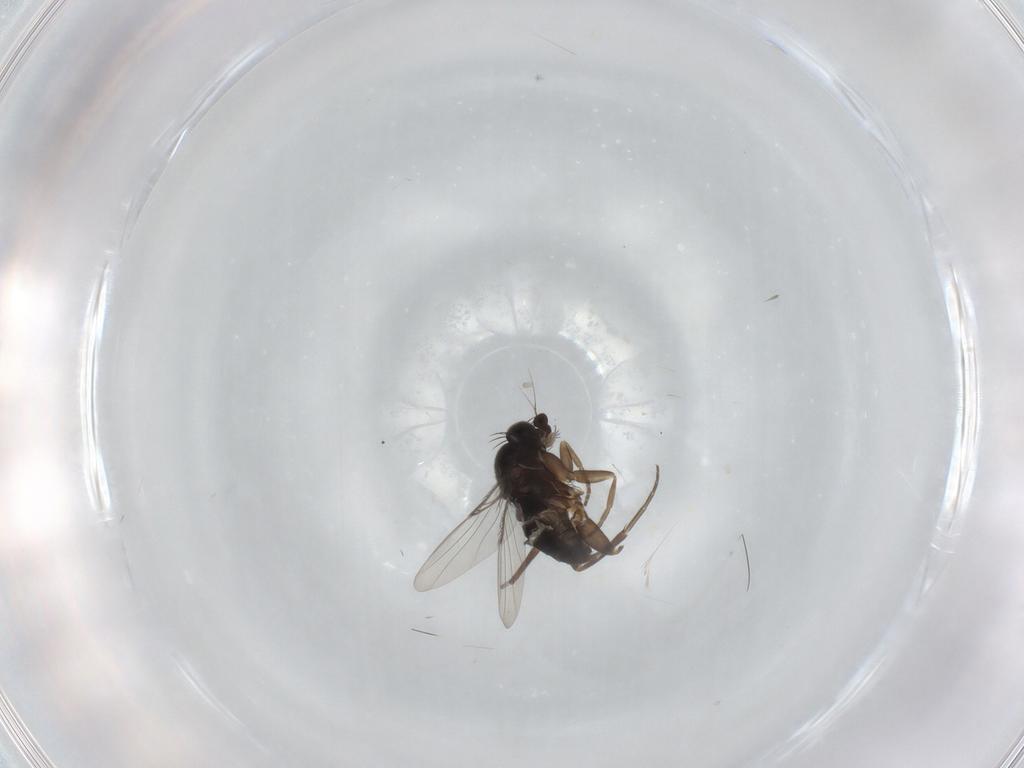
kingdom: Animalia
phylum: Arthropoda
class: Insecta
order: Diptera
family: Phoridae
